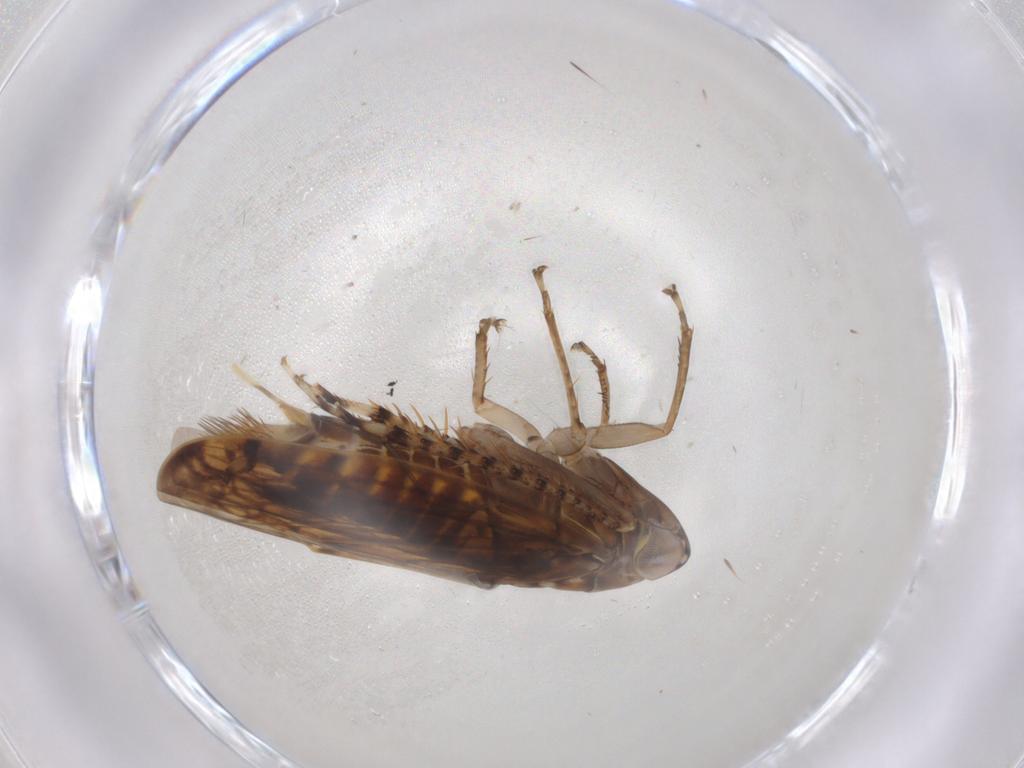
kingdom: Animalia
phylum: Arthropoda
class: Insecta
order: Hemiptera
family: Cicadellidae
